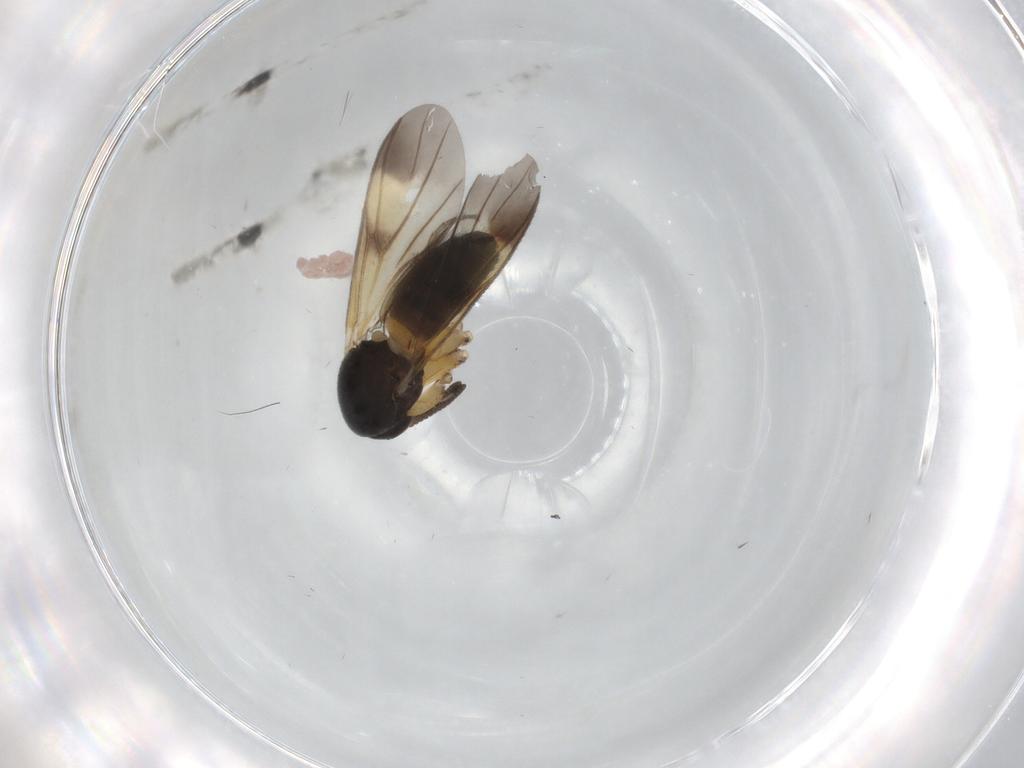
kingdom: Animalia
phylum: Arthropoda
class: Insecta
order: Diptera
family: Mycetophilidae
